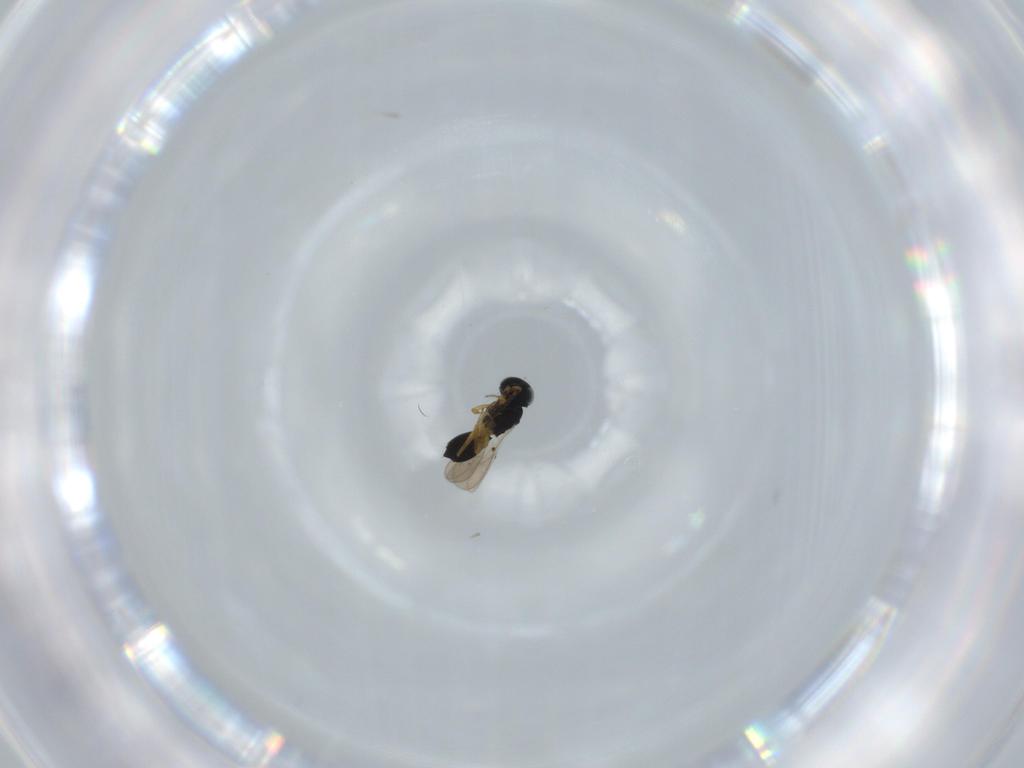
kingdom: Animalia
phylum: Arthropoda
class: Insecta
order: Hymenoptera
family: Scelionidae
